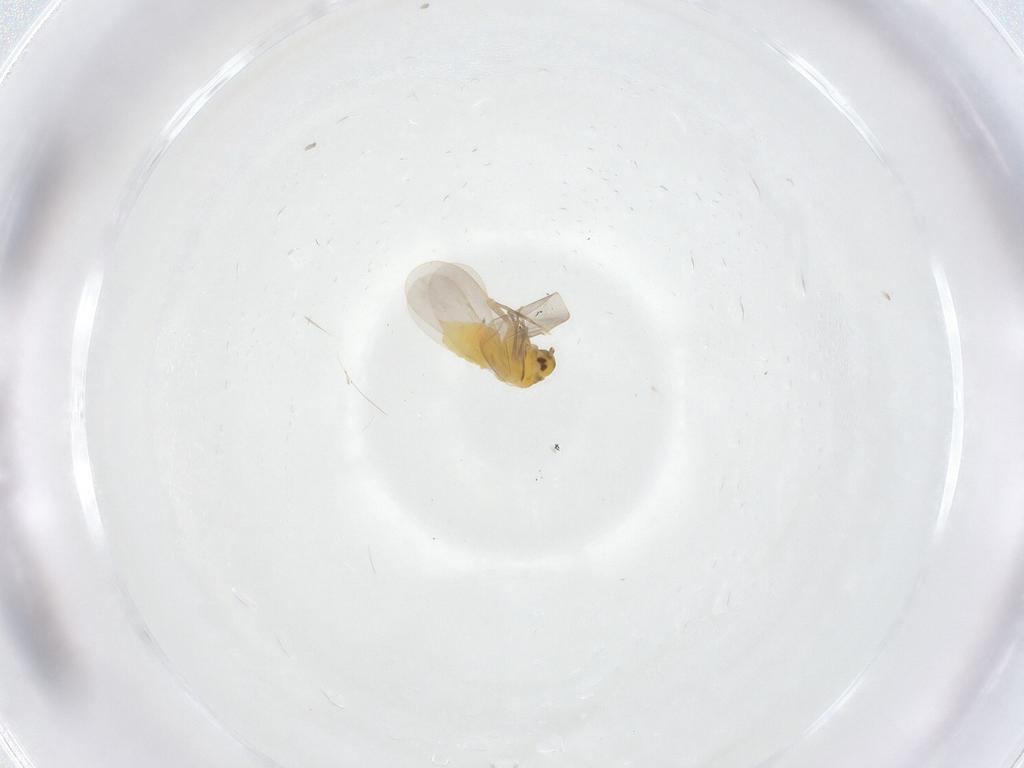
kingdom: Animalia
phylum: Arthropoda
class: Insecta
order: Hemiptera
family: Aleyrodidae
